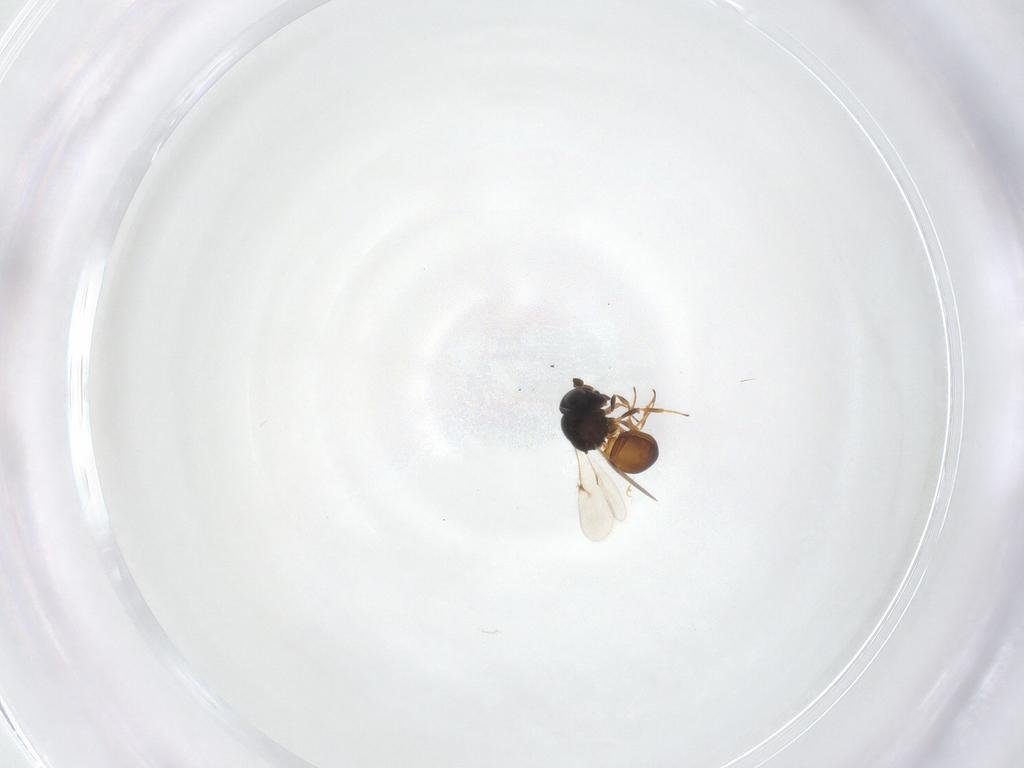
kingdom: Animalia
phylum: Arthropoda
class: Insecta
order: Hymenoptera
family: Scelionidae
